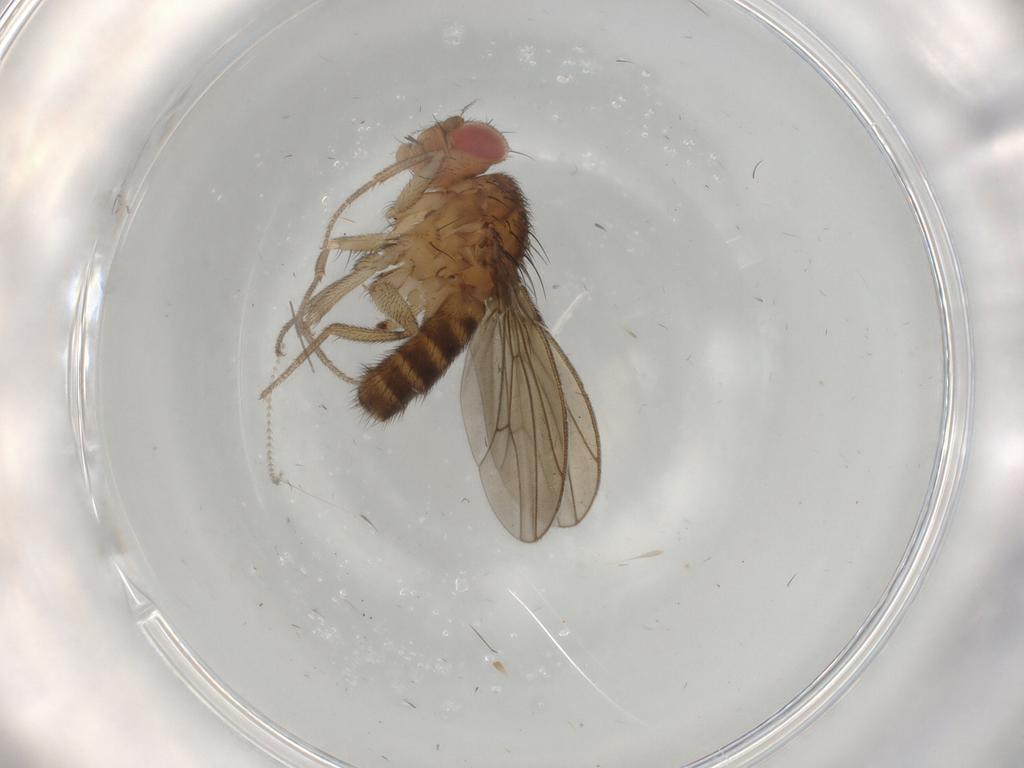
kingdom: Animalia
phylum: Arthropoda
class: Insecta
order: Diptera
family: Drosophilidae
